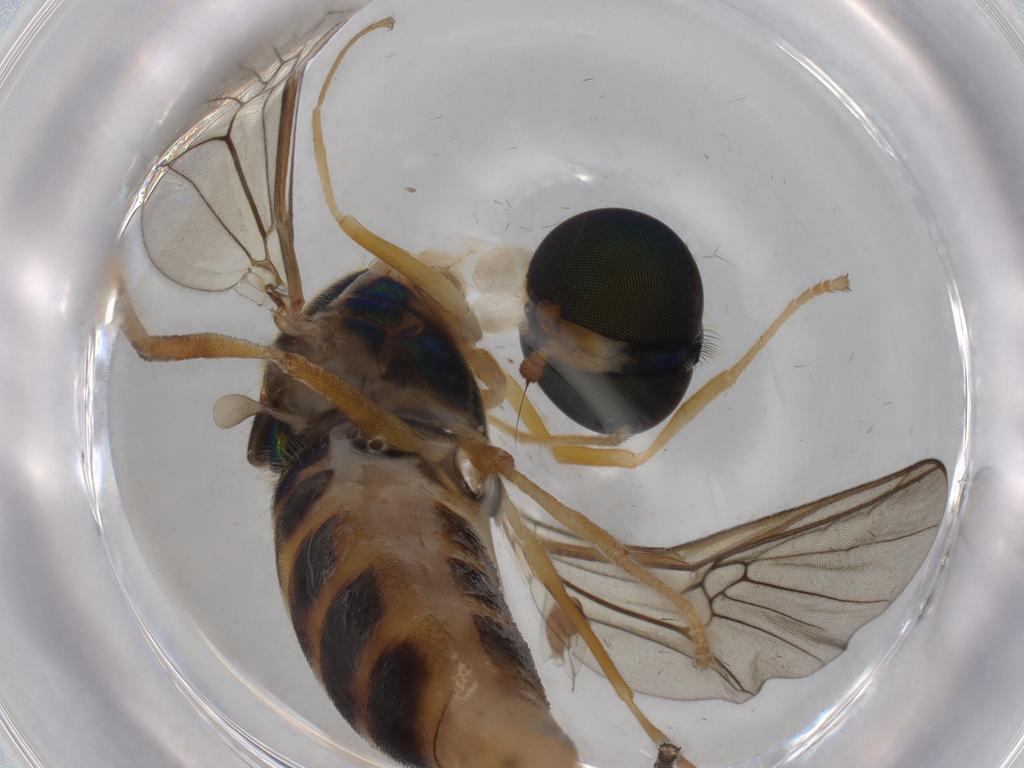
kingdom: Animalia
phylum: Arthropoda
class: Insecta
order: Diptera
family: Drosophilidae
